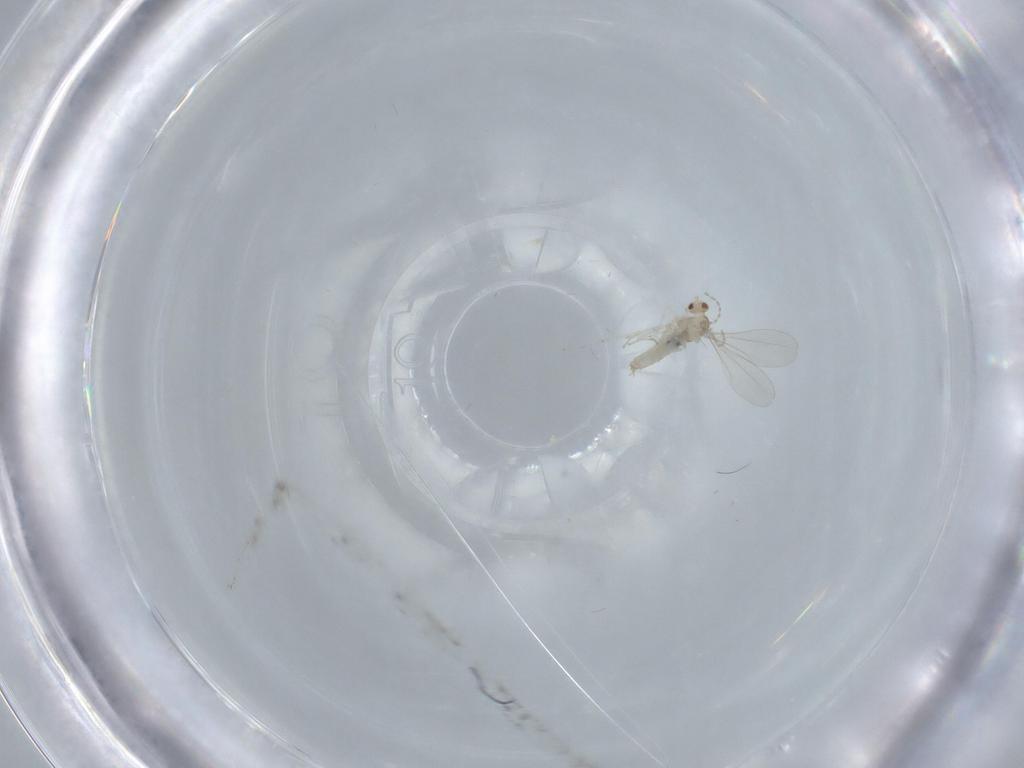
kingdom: Animalia
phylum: Arthropoda
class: Insecta
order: Diptera
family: Cecidomyiidae
